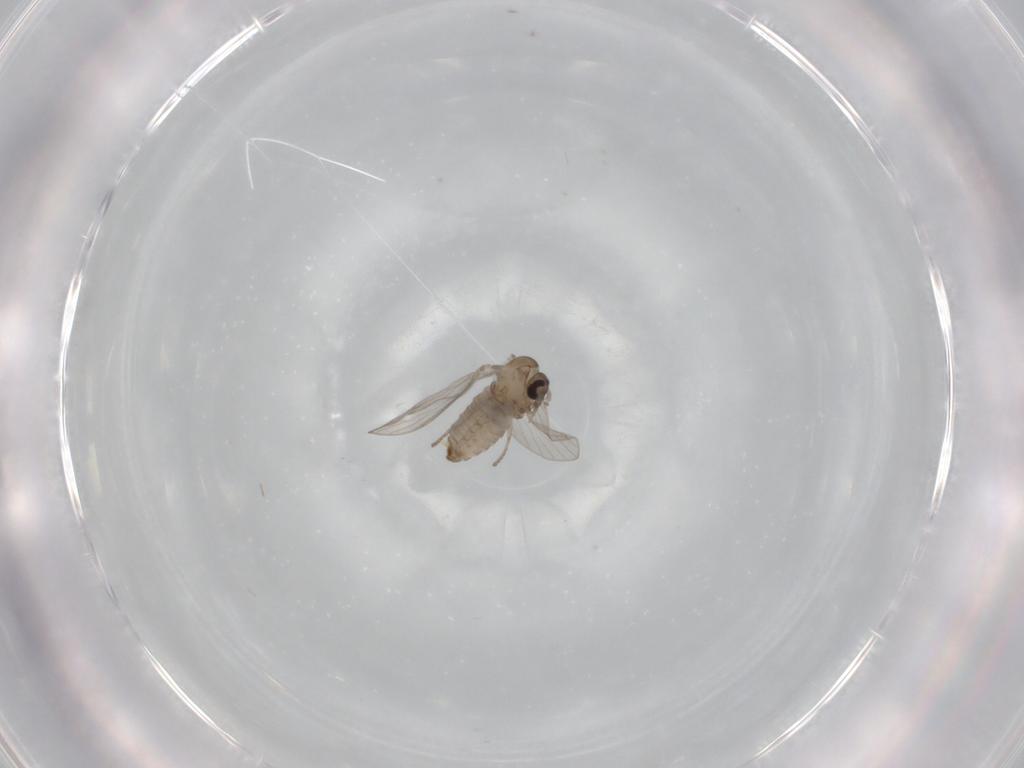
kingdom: Animalia
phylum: Arthropoda
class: Insecta
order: Diptera
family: Psychodidae
